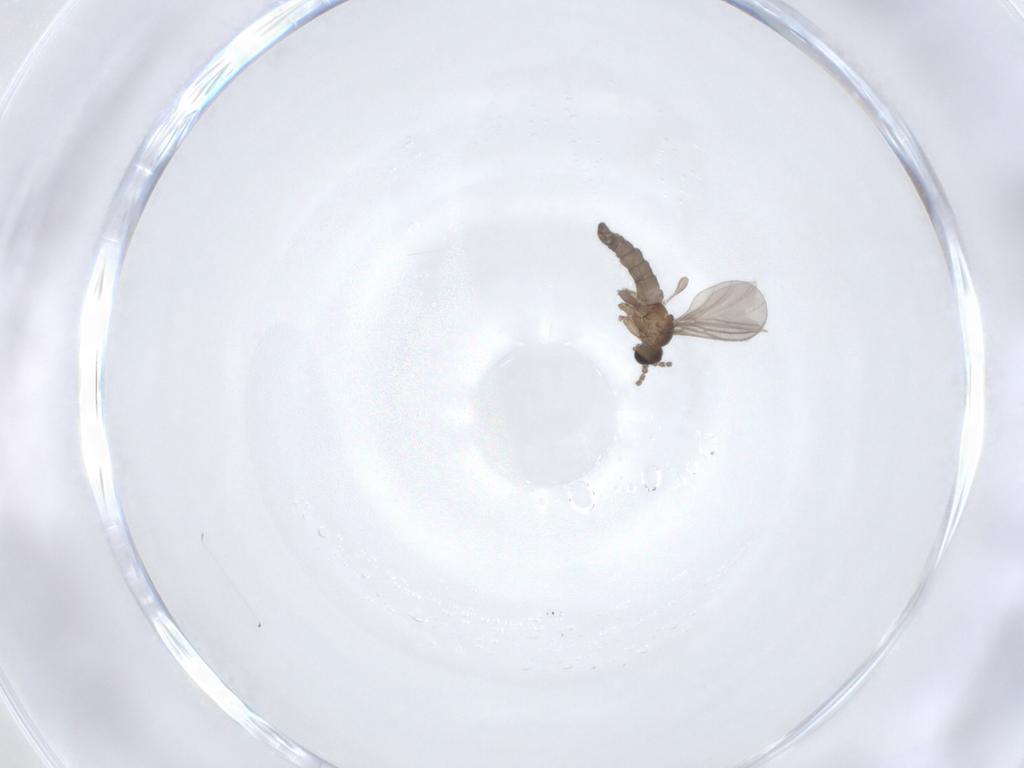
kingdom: Animalia
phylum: Arthropoda
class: Insecta
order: Diptera
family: Sciaridae
